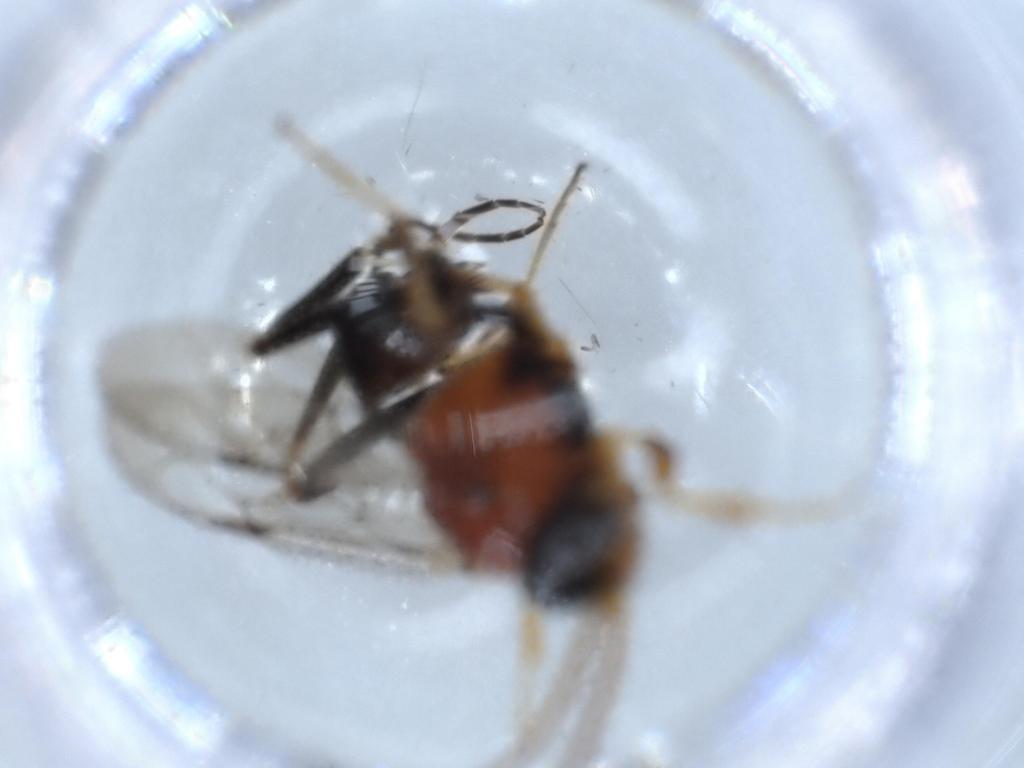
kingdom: Animalia
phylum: Arthropoda
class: Insecta
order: Hymenoptera
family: Evaniidae
